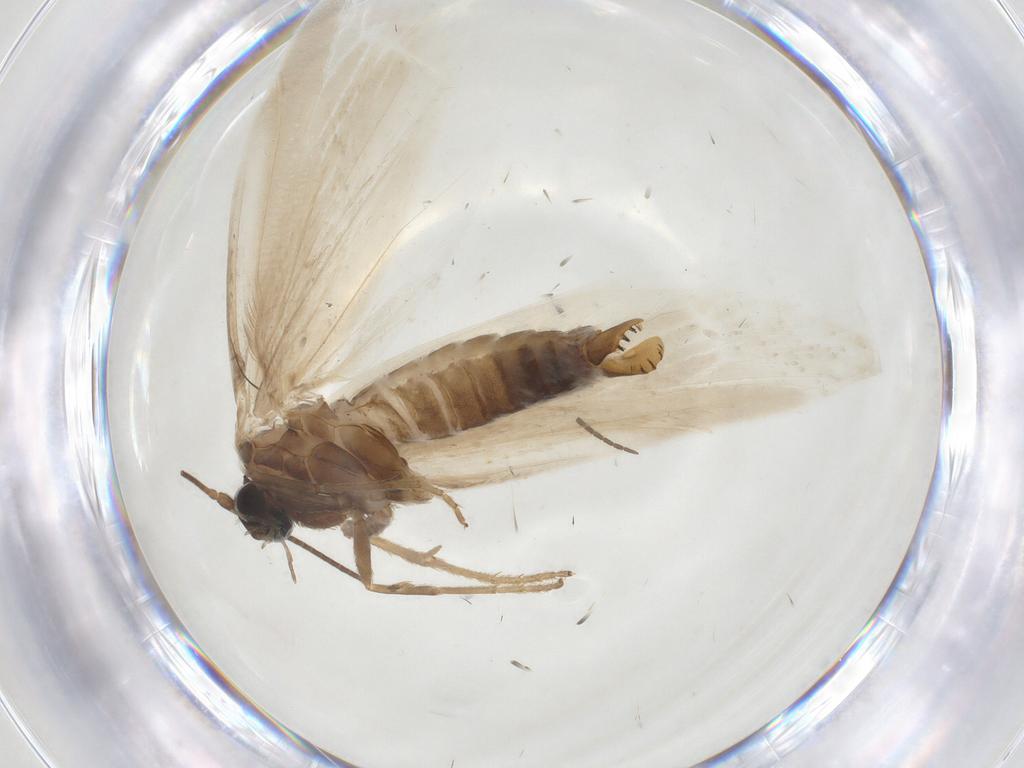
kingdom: Animalia
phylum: Arthropoda
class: Insecta
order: Lepidoptera
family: Tridentaformidae
